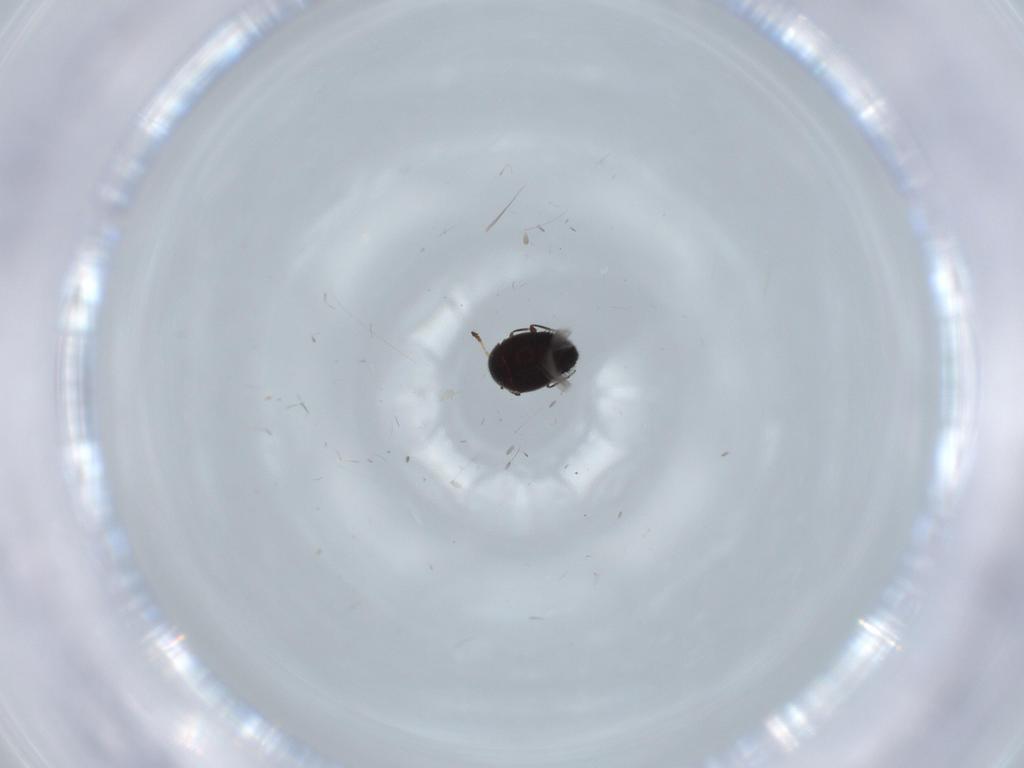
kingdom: Animalia
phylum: Arthropoda
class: Insecta
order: Coleoptera
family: Staphylinidae
